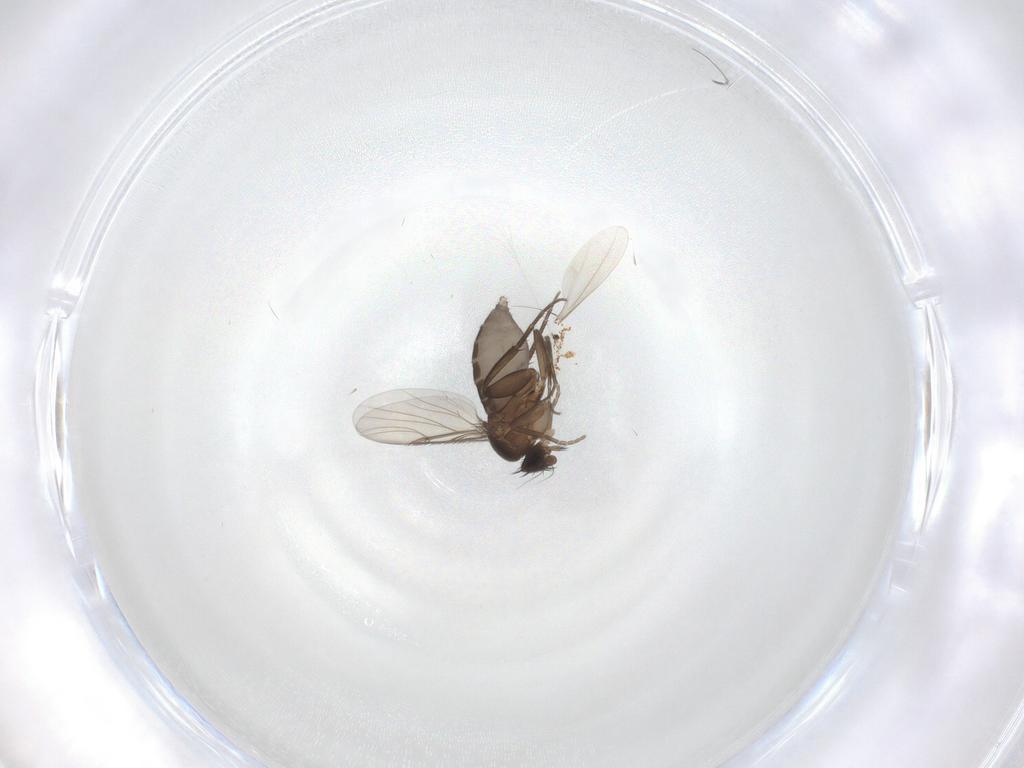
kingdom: Animalia
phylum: Arthropoda
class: Insecta
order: Diptera
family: Phoridae
